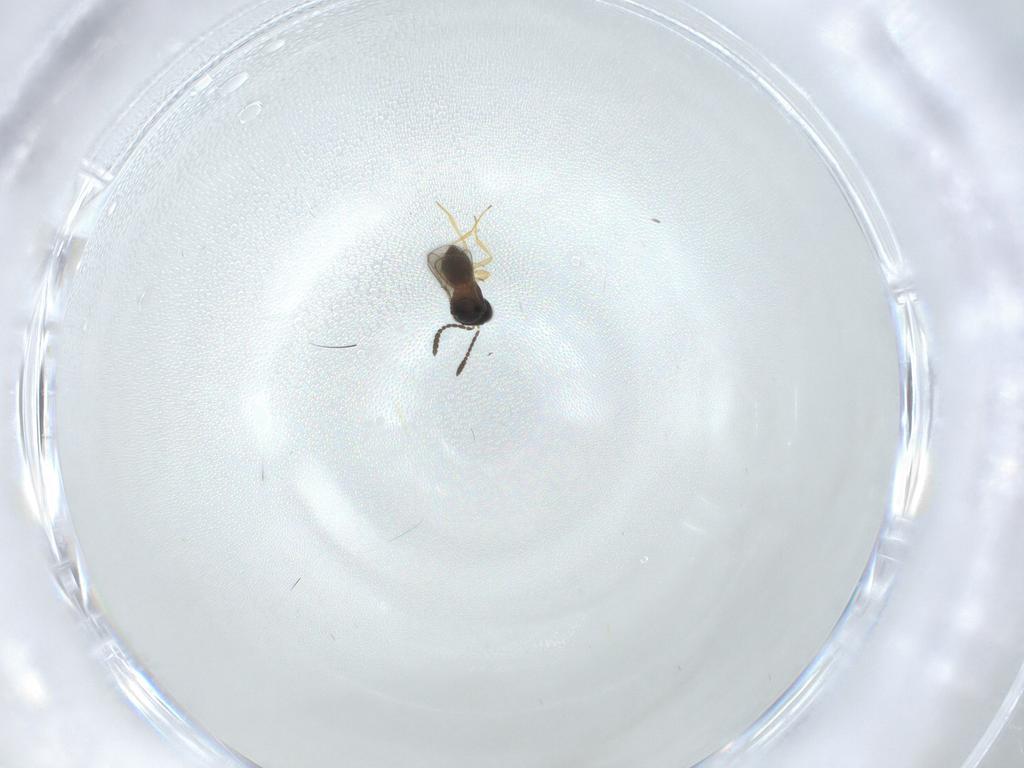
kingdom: Animalia
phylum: Arthropoda
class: Insecta
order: Hymenoptera
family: Scelionidae
